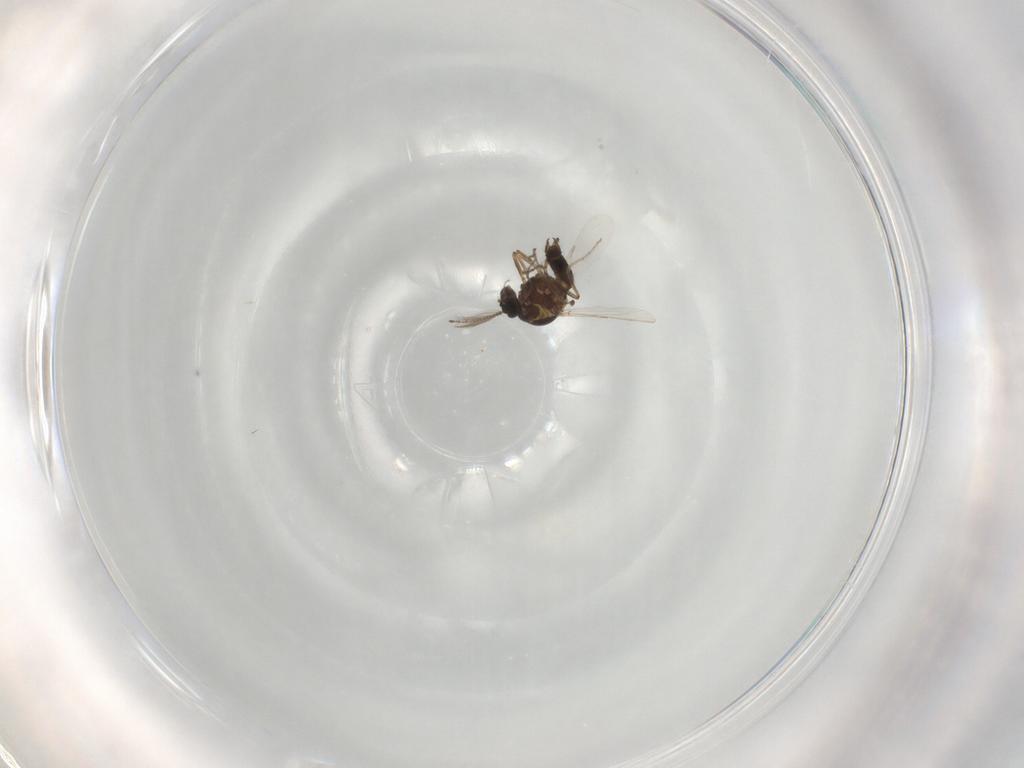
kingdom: Animalia
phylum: Arthropoda
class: Insecta
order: Diptera
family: Ceratopogonidae
